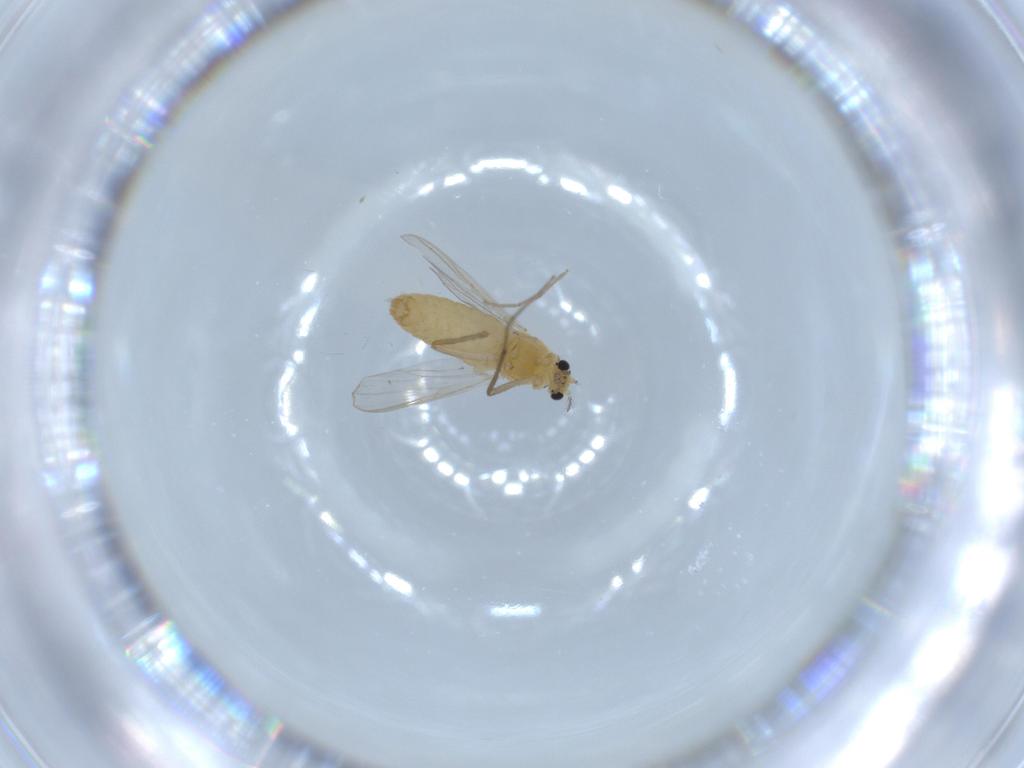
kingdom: Animalia
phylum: Arthropoda
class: Insecta
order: Diptera
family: Chironomidae
